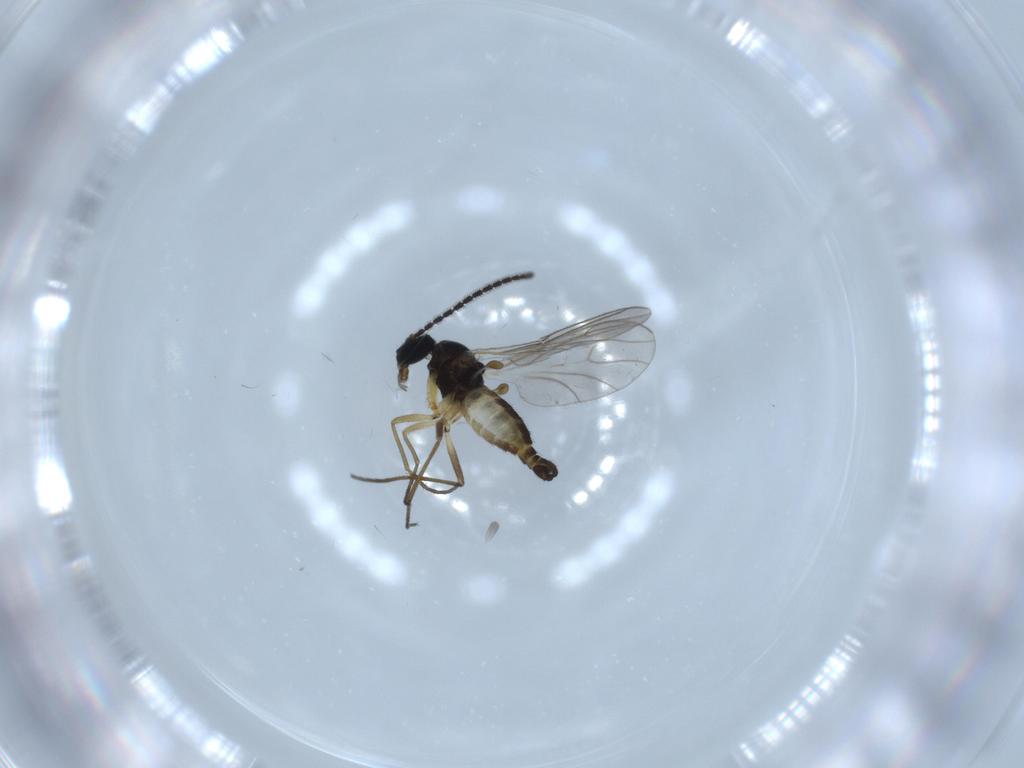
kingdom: Animalia
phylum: Arthropoda
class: Insecta
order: Diptera
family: Sciaridae
